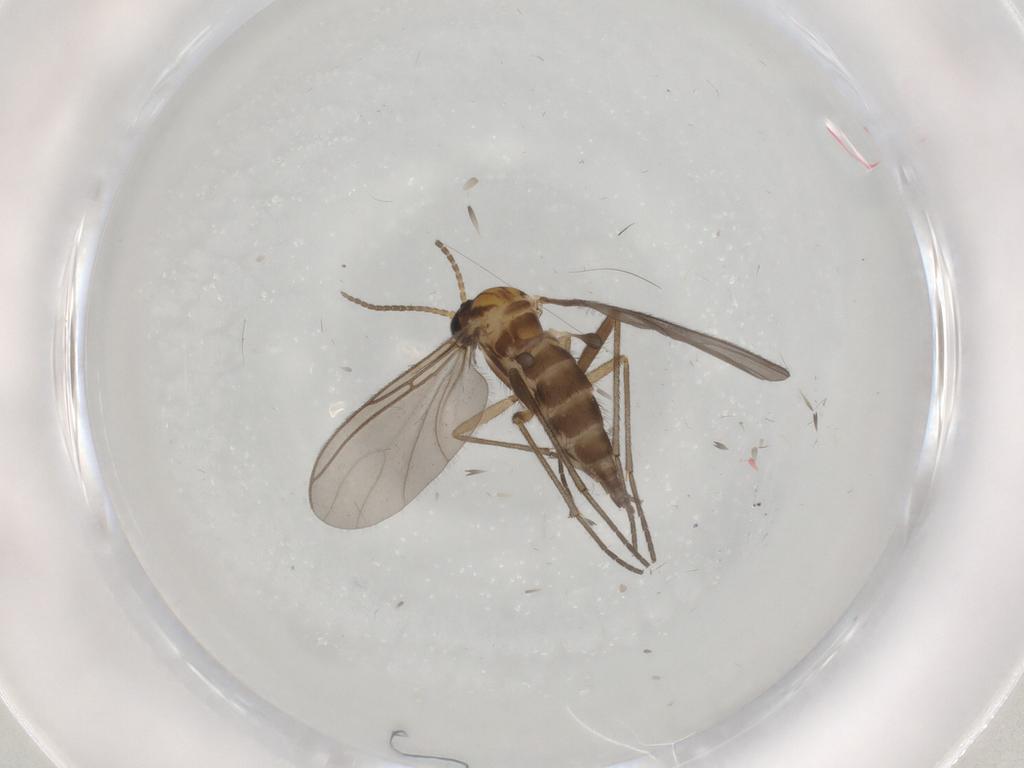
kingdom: Animalia
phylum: Arthropoda
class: Insecta
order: Diptera
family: Sciaridae
